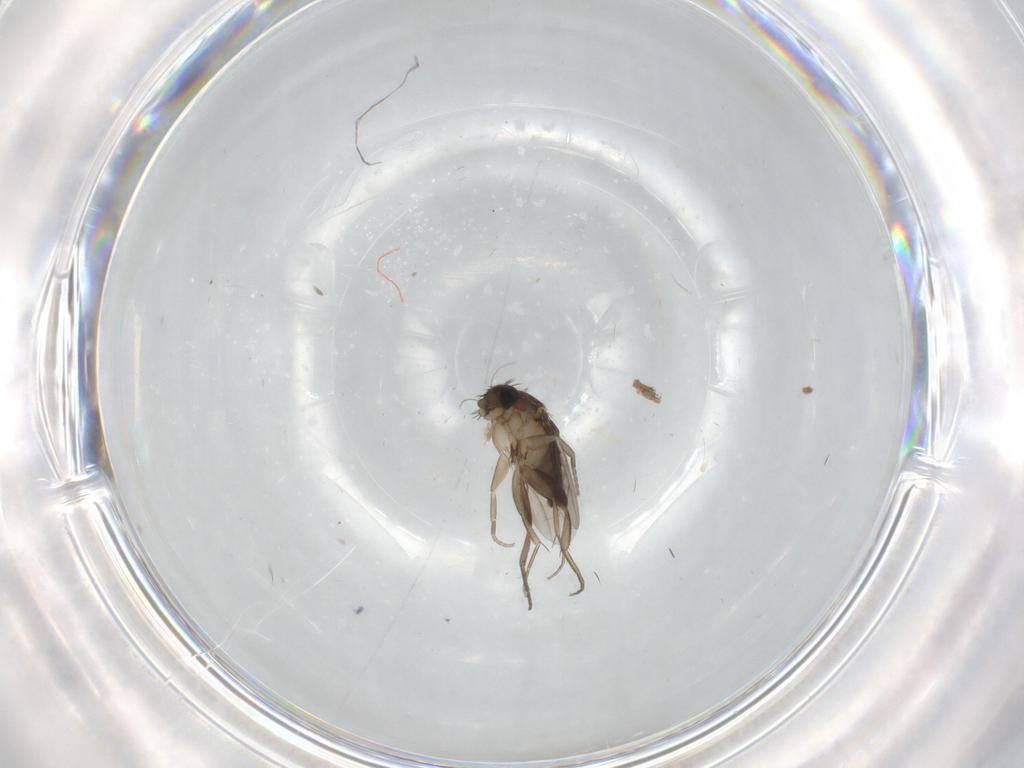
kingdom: Animalia
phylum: Arthropoda
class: Insecta
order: Diptera
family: Phoridae
